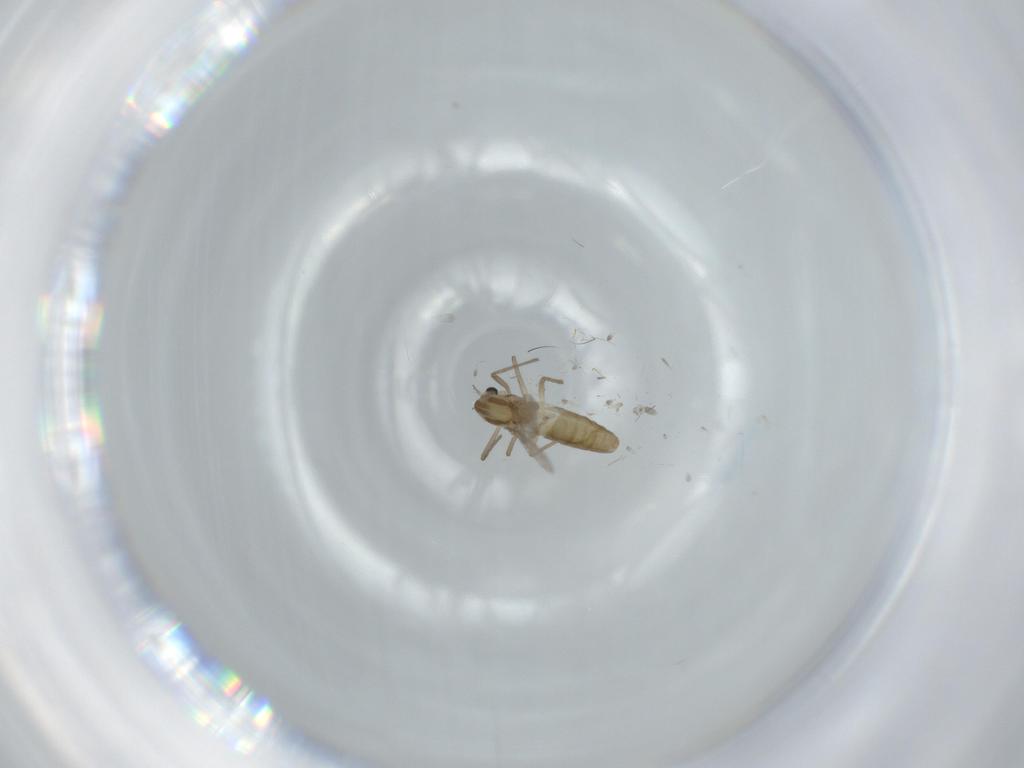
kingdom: Animalia
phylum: Arthropoda
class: Insecta
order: Diptera
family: Chironomidae
